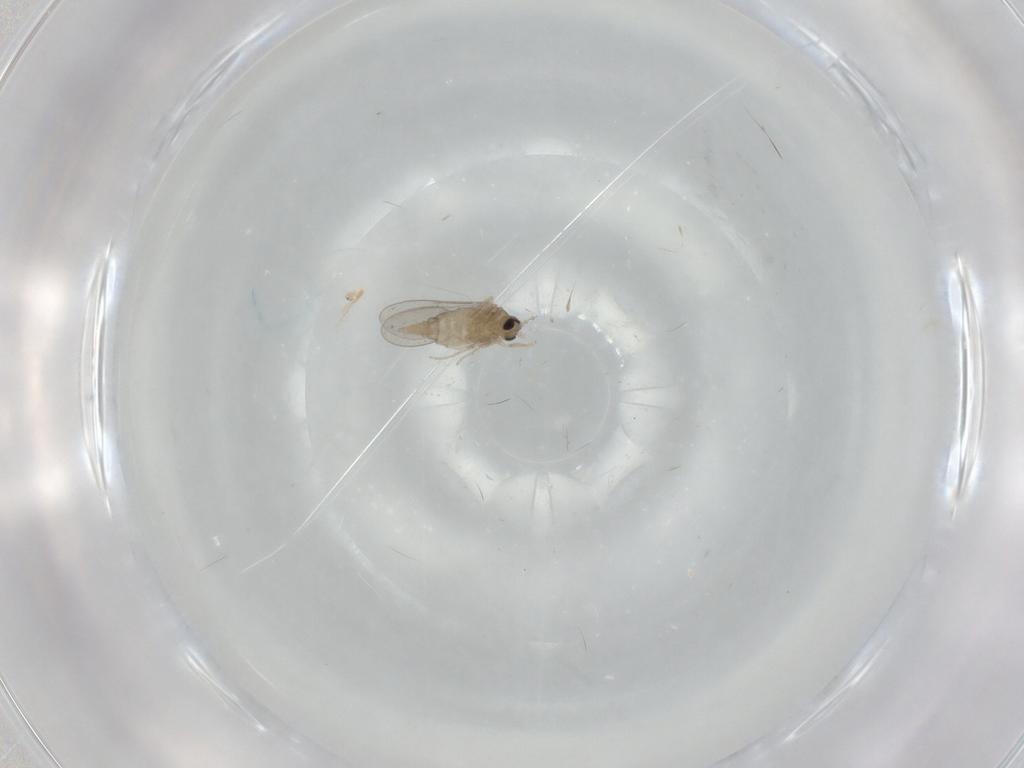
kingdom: Animalia
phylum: Arthropoda
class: Insecta
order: Diptera
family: Cecidomyiidae
